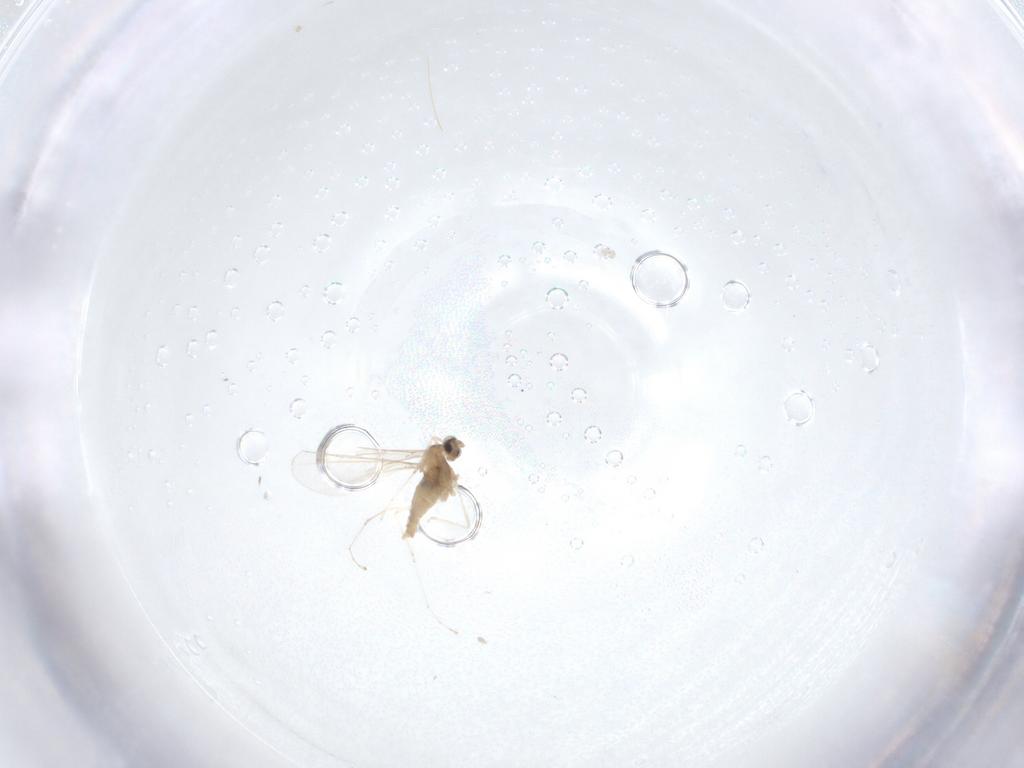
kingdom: Animalia
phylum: Arthropoda
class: Insecta
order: Diptera
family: Cecidomyiidae
